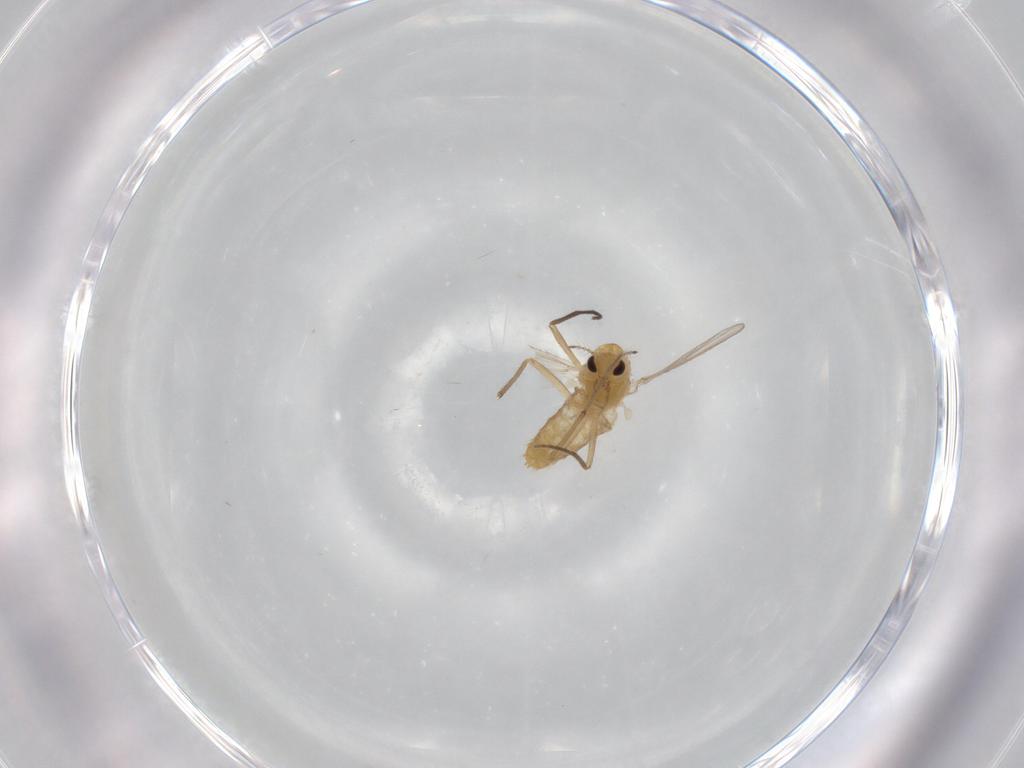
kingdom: Animalia
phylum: Arthropoda
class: Insecta
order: Diptera
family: Chironomidae
